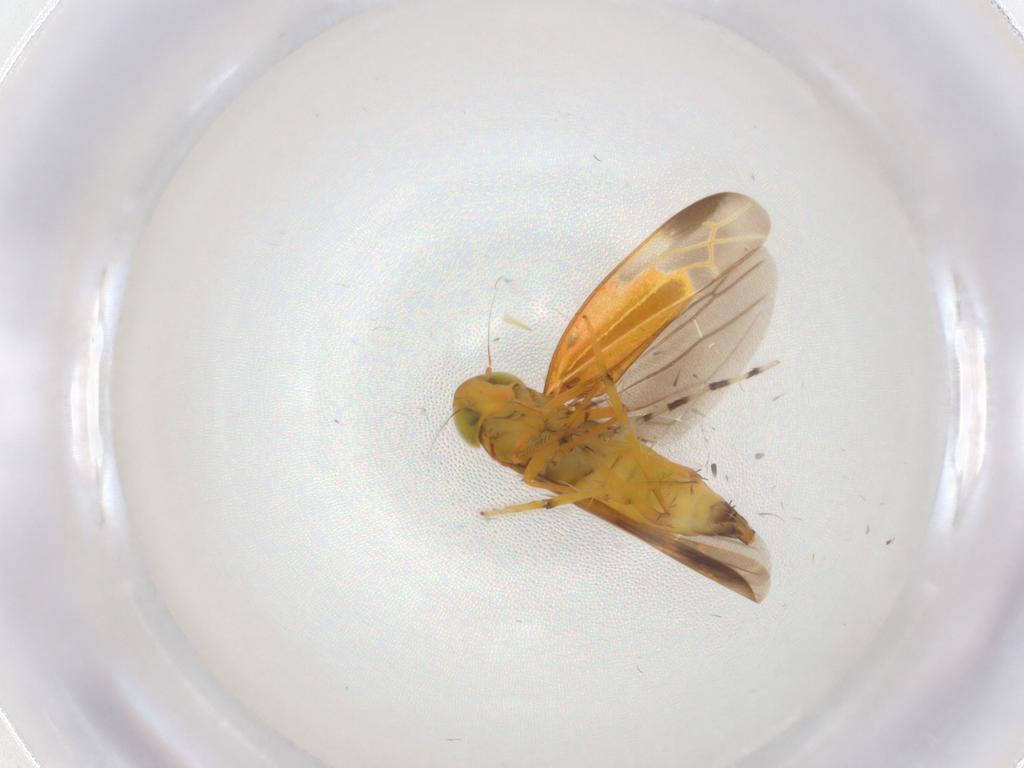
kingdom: Animalia
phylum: Arthropoda
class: Insecta
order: Hemiptera
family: Cicadellidae
